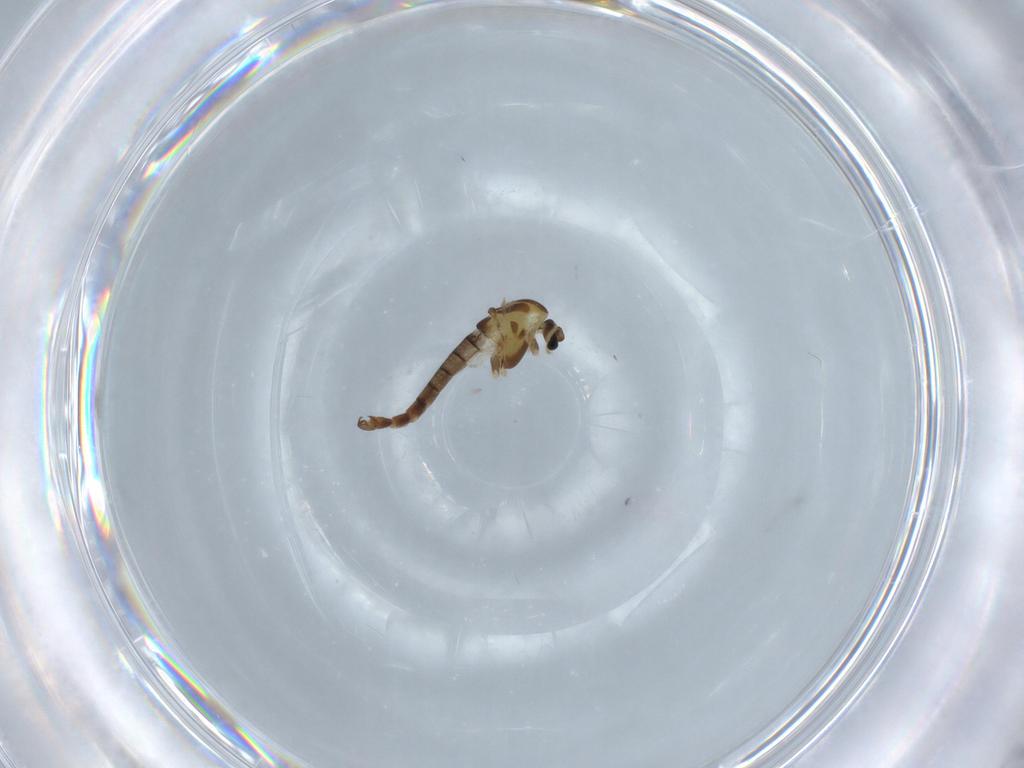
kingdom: Animalia
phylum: Arthropoda
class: Insecta
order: Diptera
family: Chironomidae
